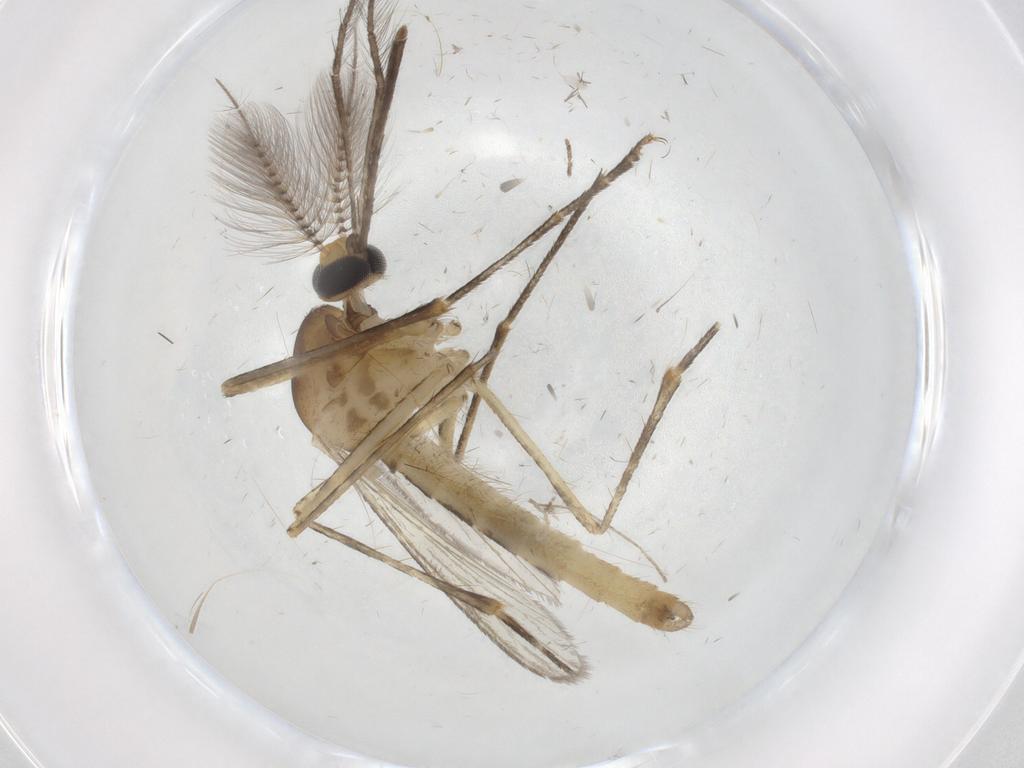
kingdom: Animalia
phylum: Arthropoda
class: Insecta
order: Diptera
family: Culicidae
